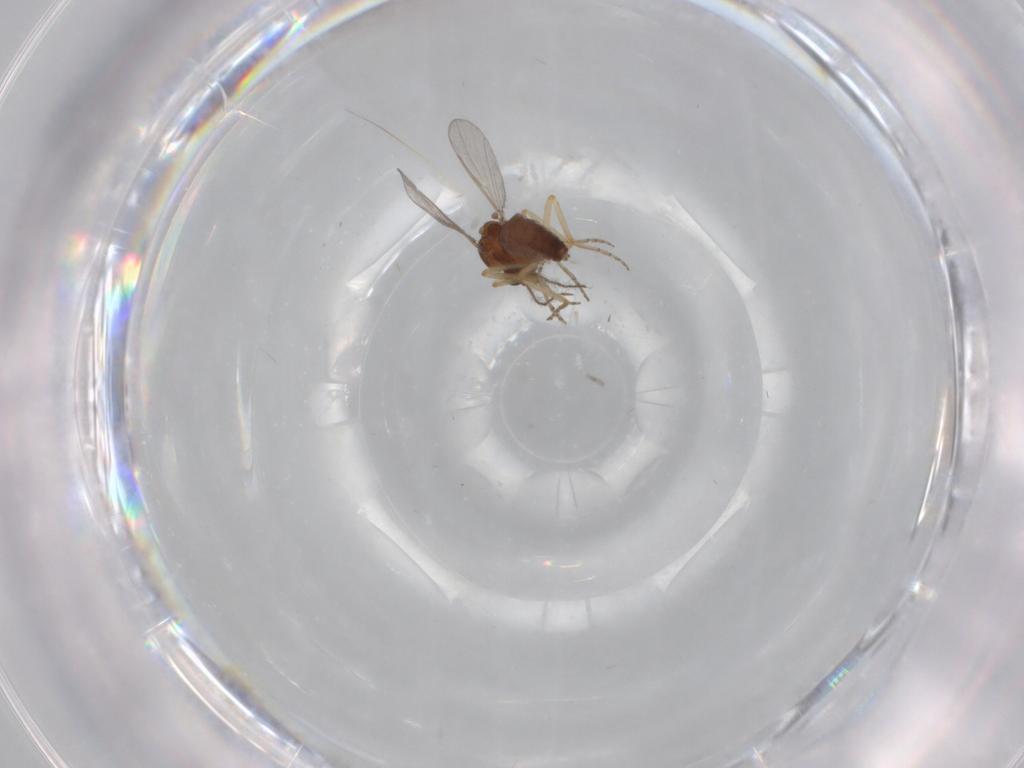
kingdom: Animalia
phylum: Arthropoda
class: Insecta
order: Diptera
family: Ceratopogonidae
